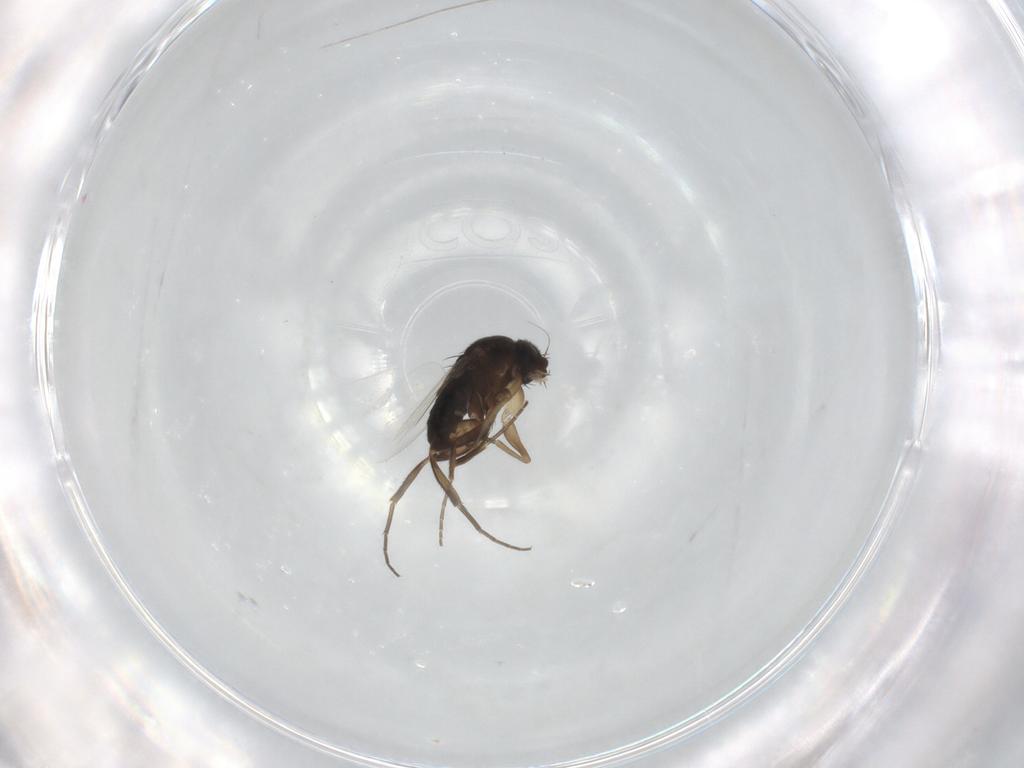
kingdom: Animalia
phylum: Arthropoda
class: Insecta
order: Diptera
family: Phoridae
